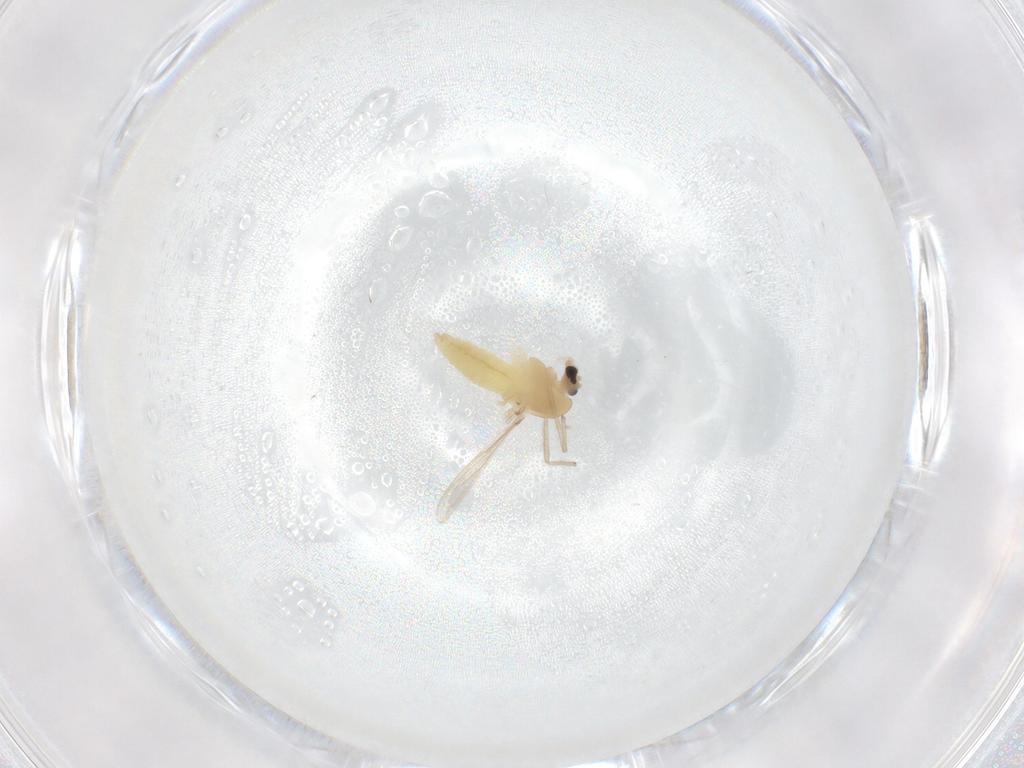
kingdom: Animalia
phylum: Arthropoda
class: Insecta
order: Diptera
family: Chironomidae
